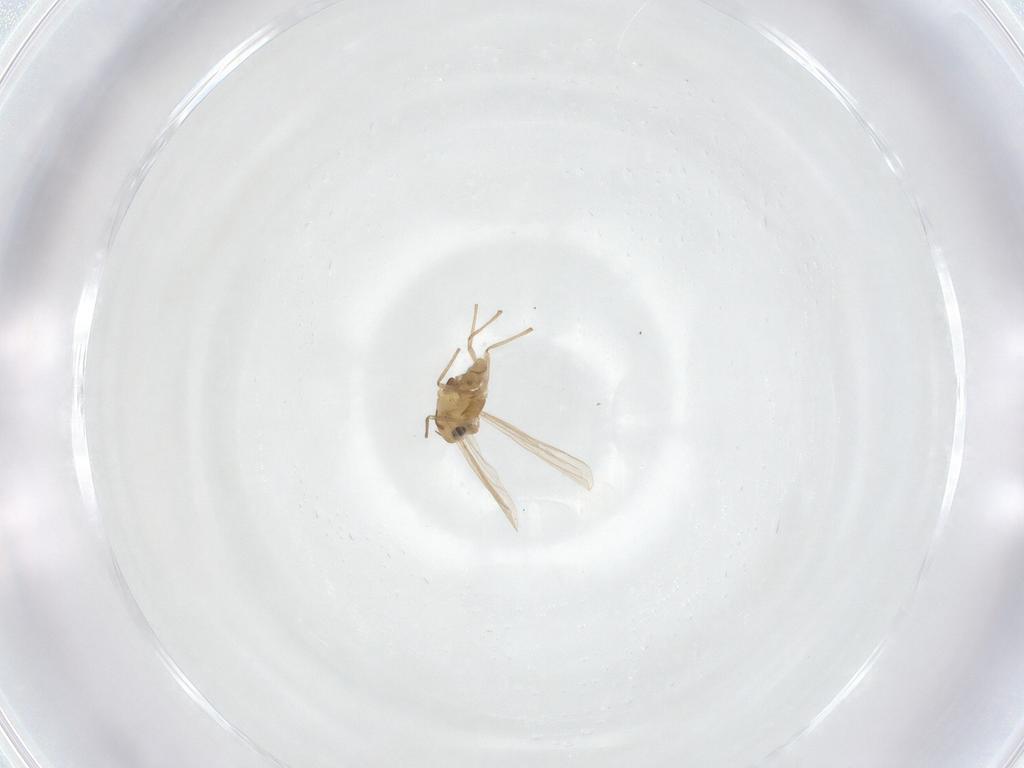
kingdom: Animalia
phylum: Arthropoda
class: Insecta
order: Diptera
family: Chironomidae
